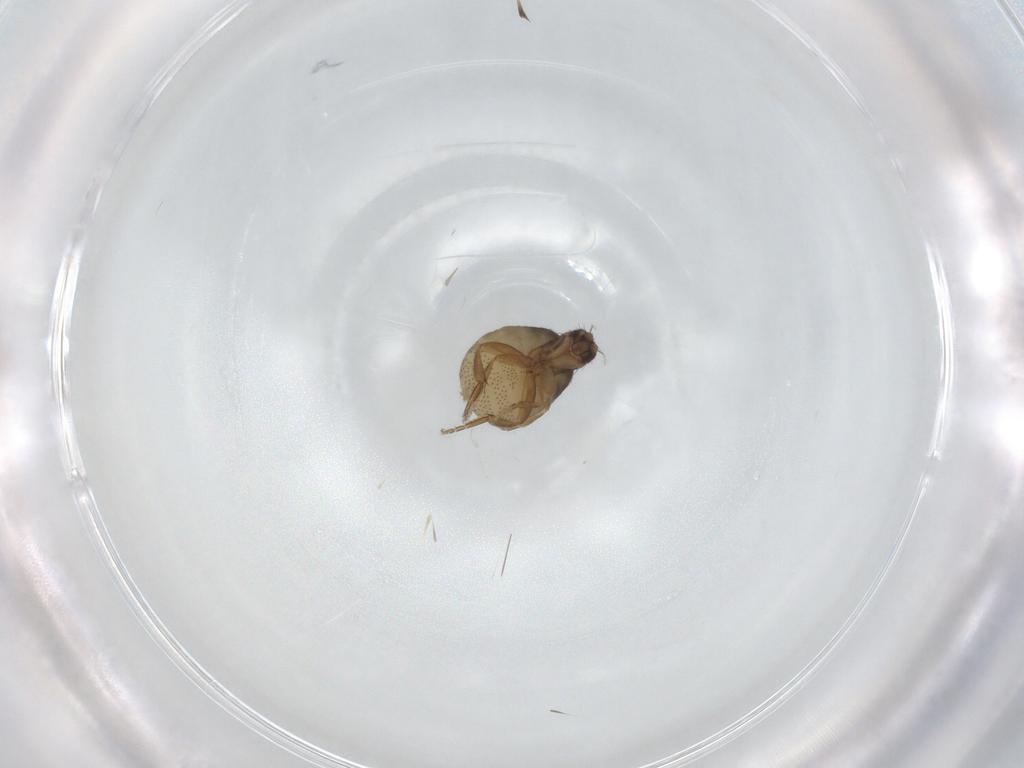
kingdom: Animalia
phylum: Arthropoda
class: Insecta
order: Diptera
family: Phoridae
